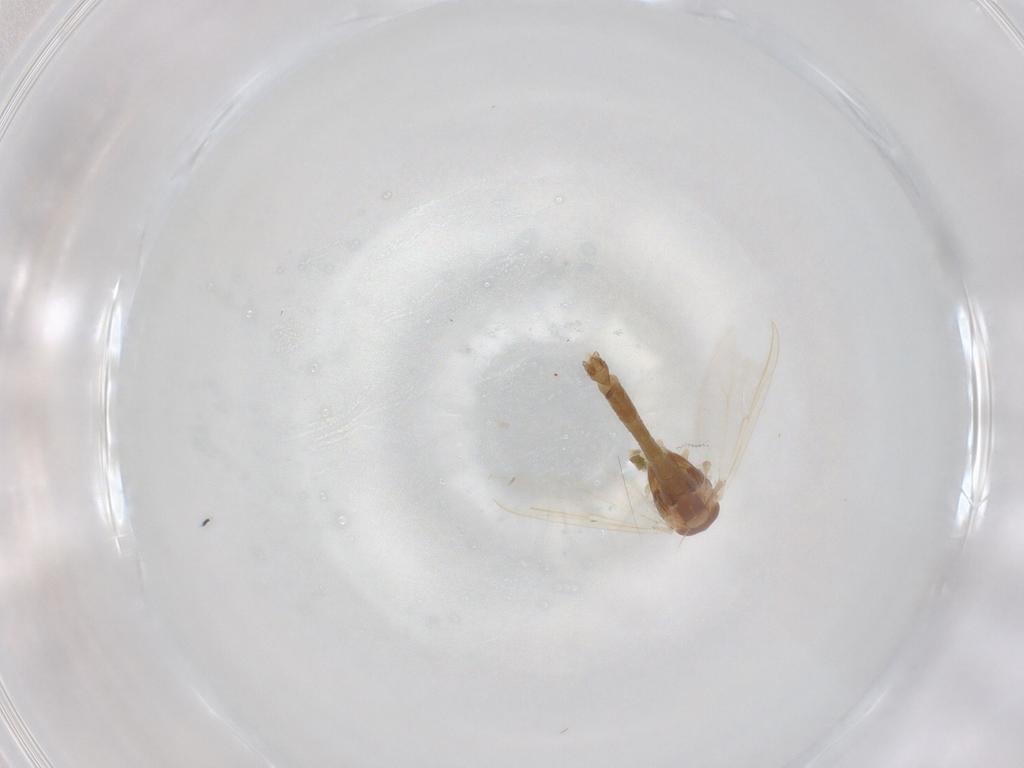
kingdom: Animalia
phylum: Arthropoda
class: Insecta
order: Diptera
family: Chironomidae
